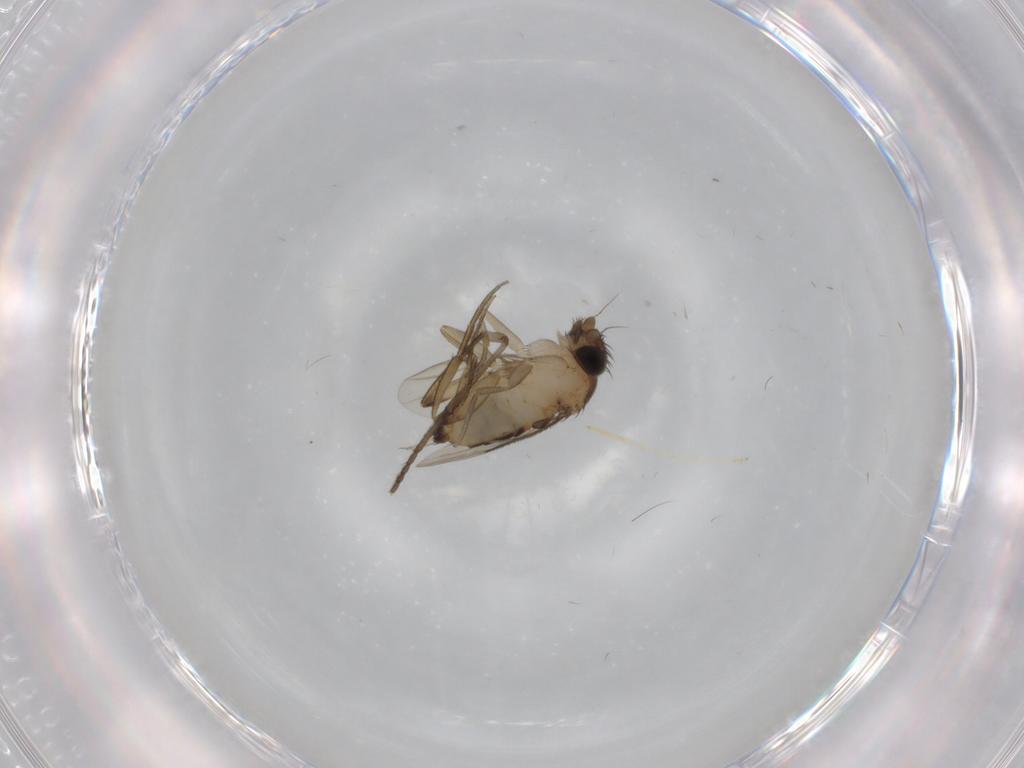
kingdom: Animalia
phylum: Arthropoda
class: Insecta
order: Diptera
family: Phoridae
